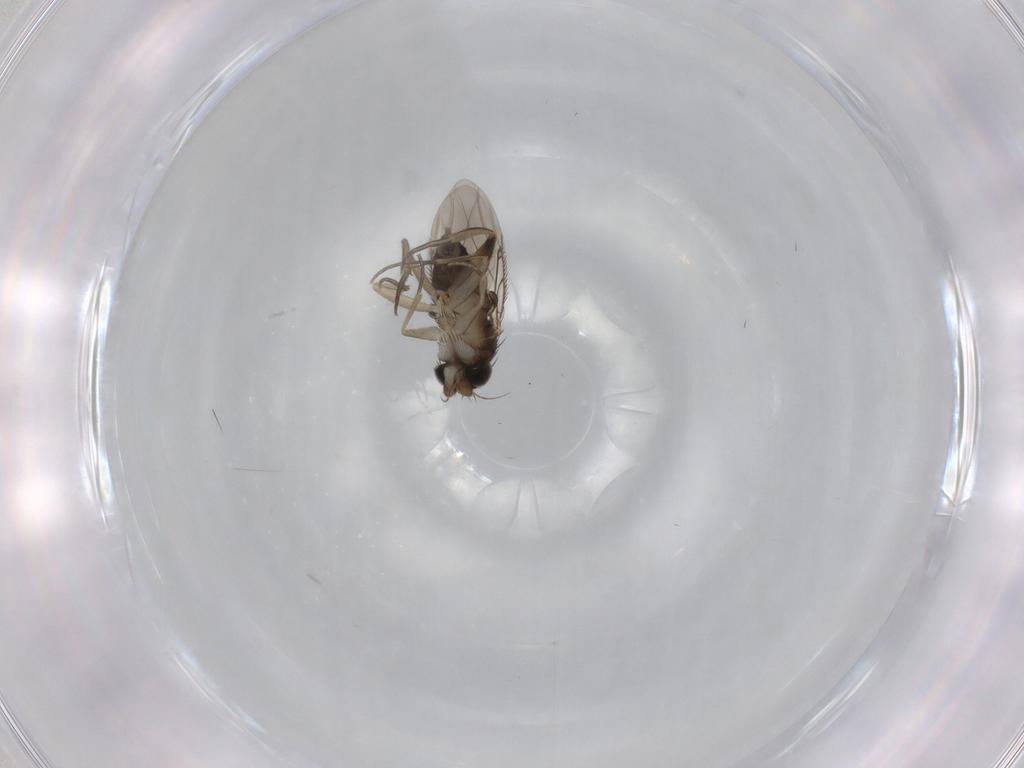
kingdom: Animalia
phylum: Arthropoda
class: Insecta
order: Diptera
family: Phoridae
